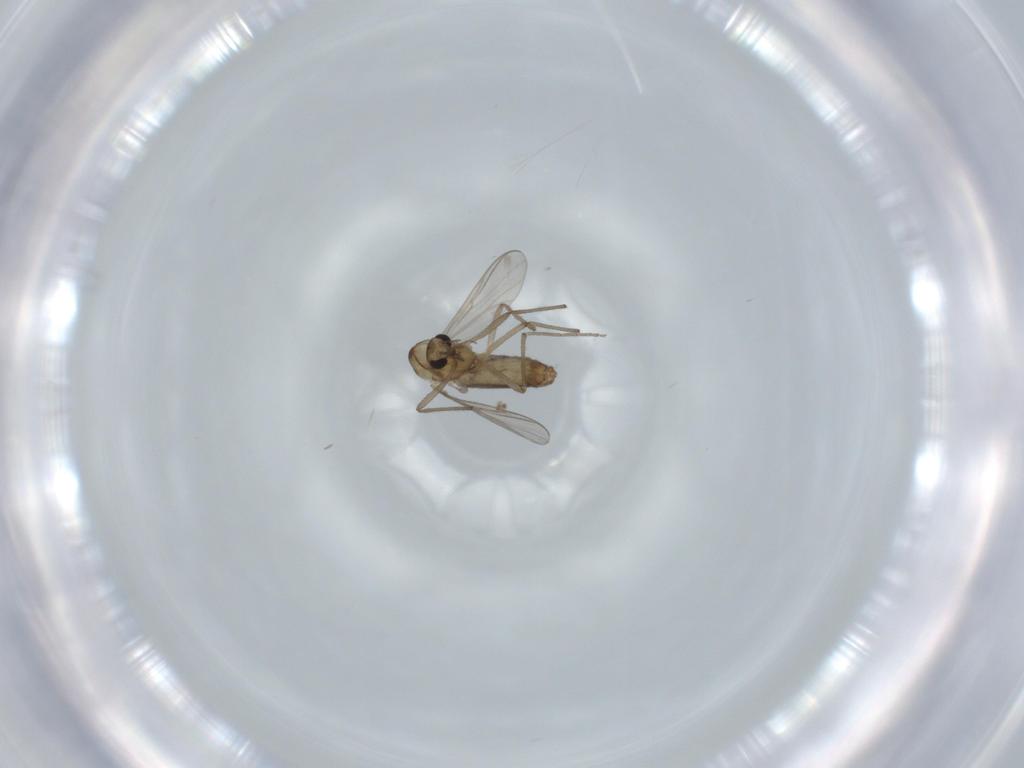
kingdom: Animalia
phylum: Arthropoda
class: Insecta
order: Diptera
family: Chironomidae
